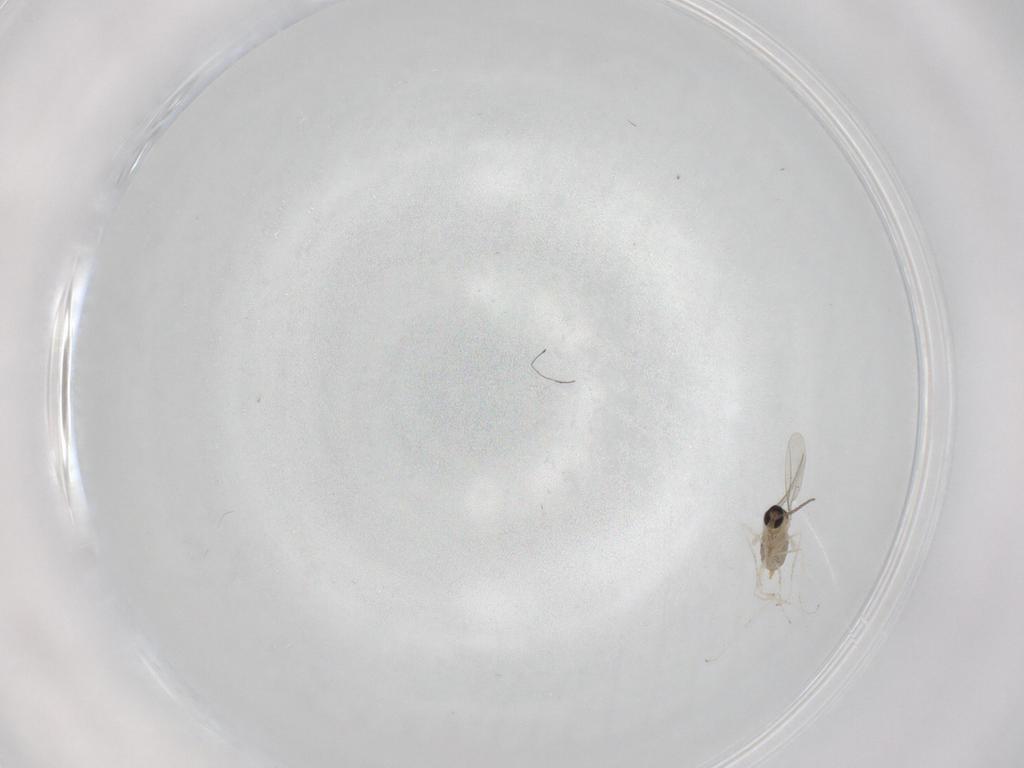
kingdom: Animalia
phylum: Arthropoda
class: Insecta
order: Diptera
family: Cecidomyiidae
